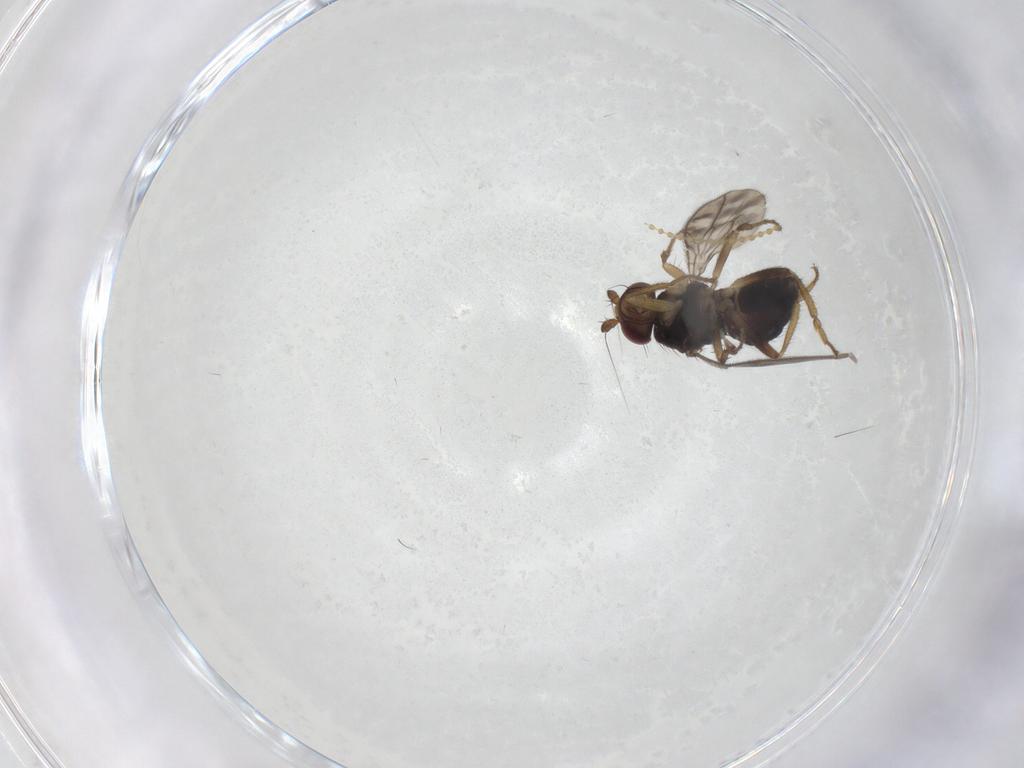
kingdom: Animalia
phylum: Arthropoda
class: Insecta
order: Diptera
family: Sphaeroceridae
